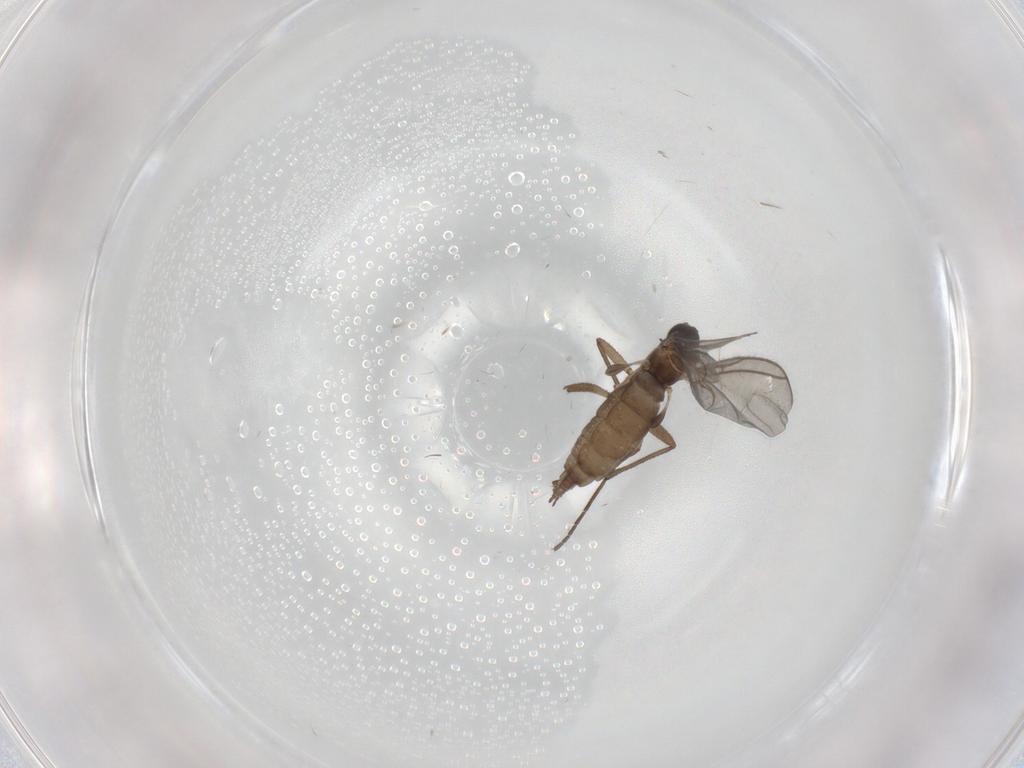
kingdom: Animalia
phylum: Arthropoda
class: Insecta
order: Diptera
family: Sciaridae
